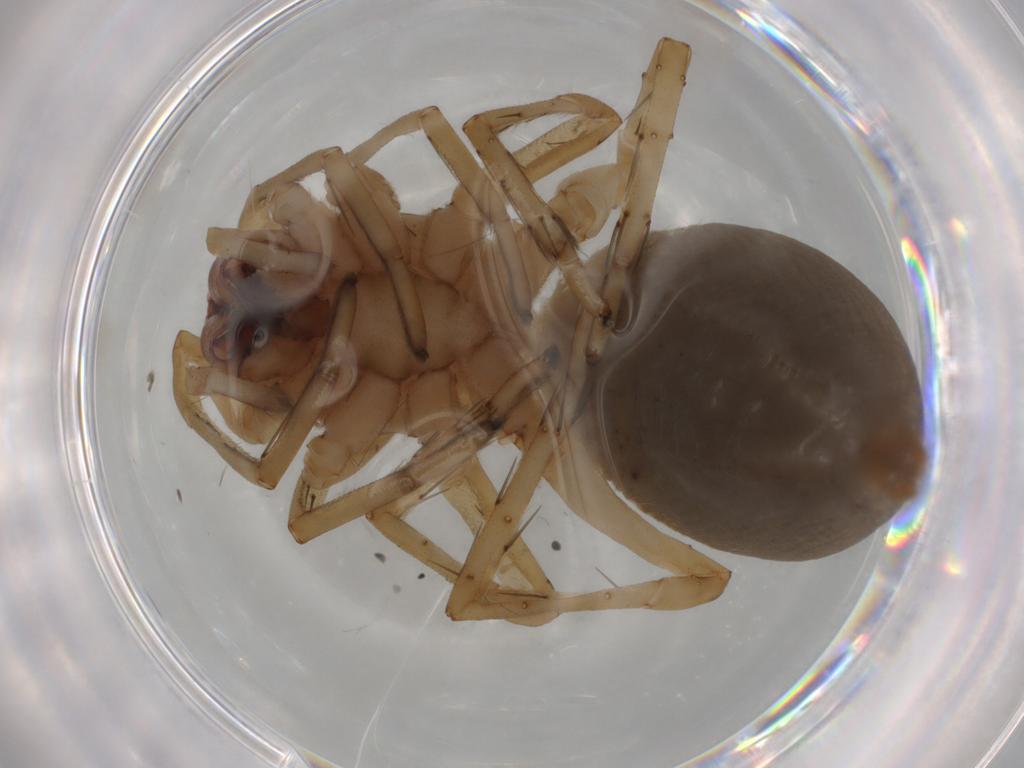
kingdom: Animalia
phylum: Arthropoda
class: Arachnida
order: Araneae
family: Clubionidae
